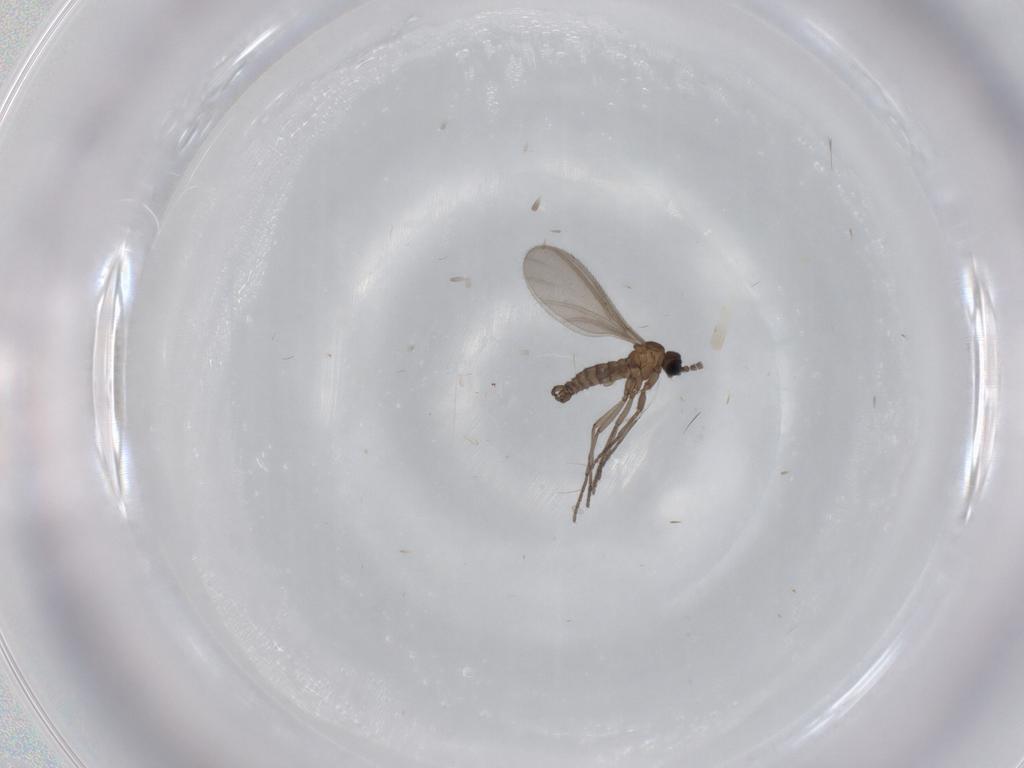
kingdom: Animalia
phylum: Arthropoda
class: Insecta
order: Diptera
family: Sciaridae
